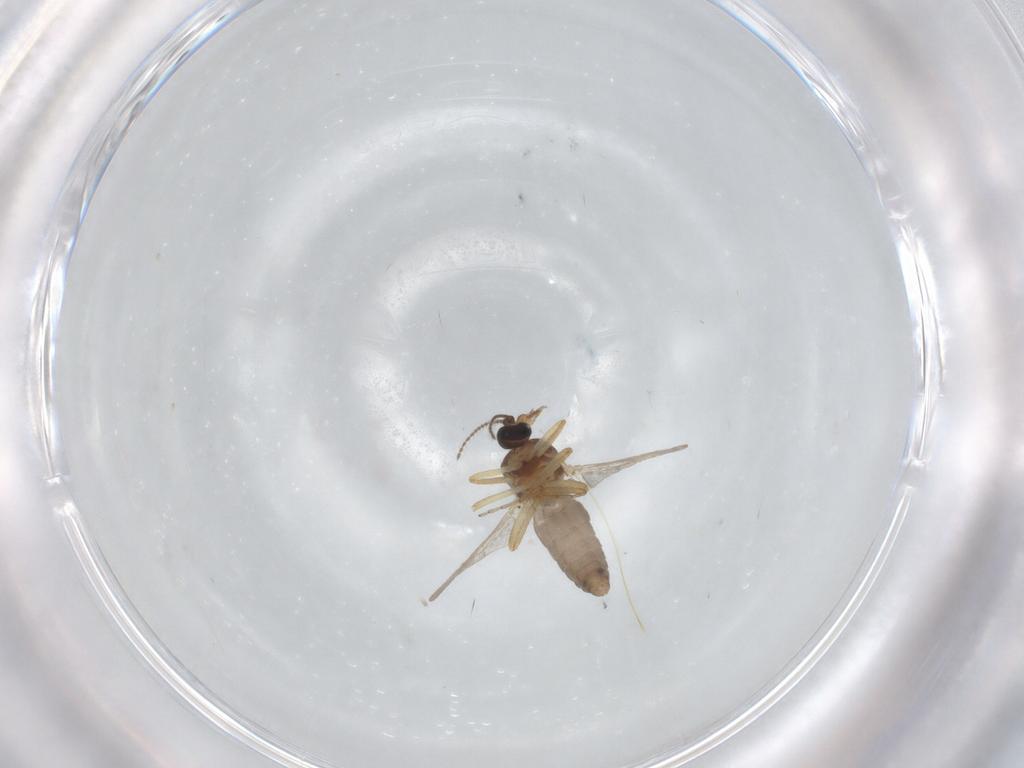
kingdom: Animalia
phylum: Arthropoda
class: Insecta
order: Diptera
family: Ceratopogonidae
